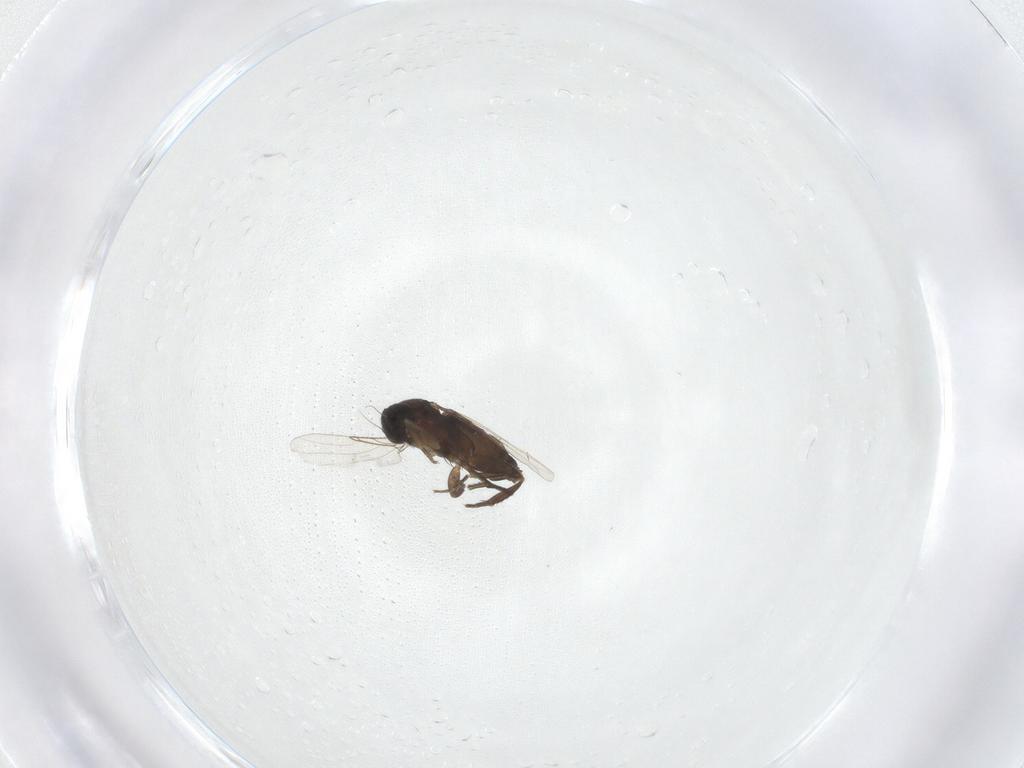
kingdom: Animalia
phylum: Arthropoda
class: Insecta
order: Diptera
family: Phoridae
